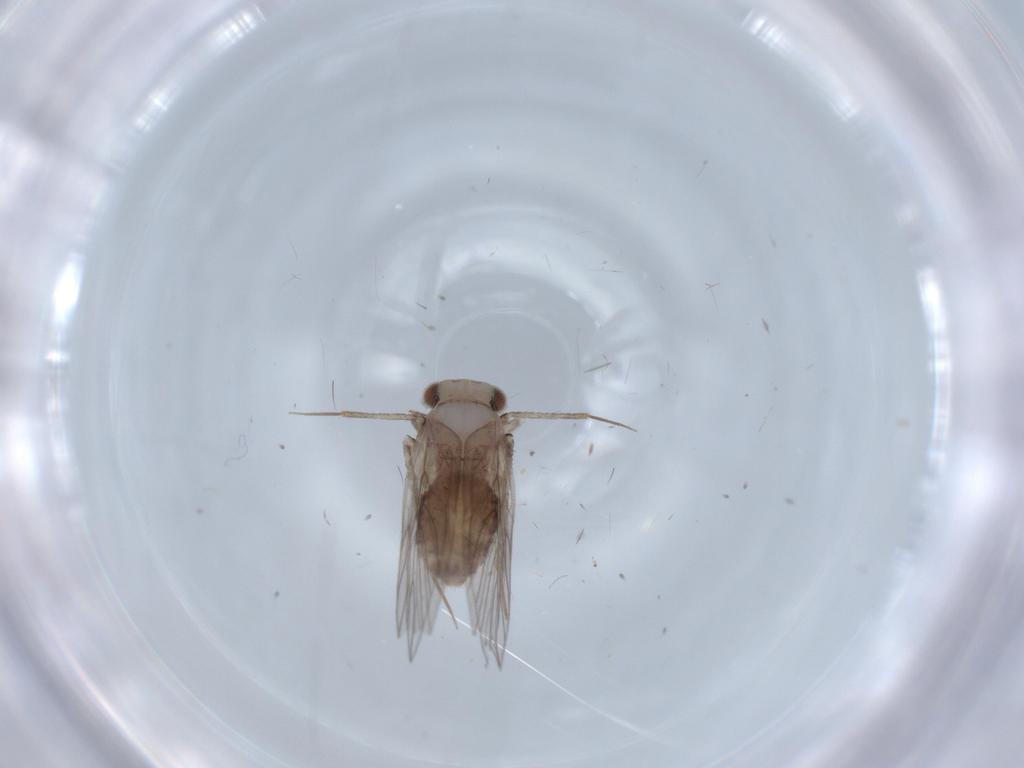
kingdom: Animalia
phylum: Arthropoda
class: Insecta
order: Psocodea
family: Lepidopsocidae
